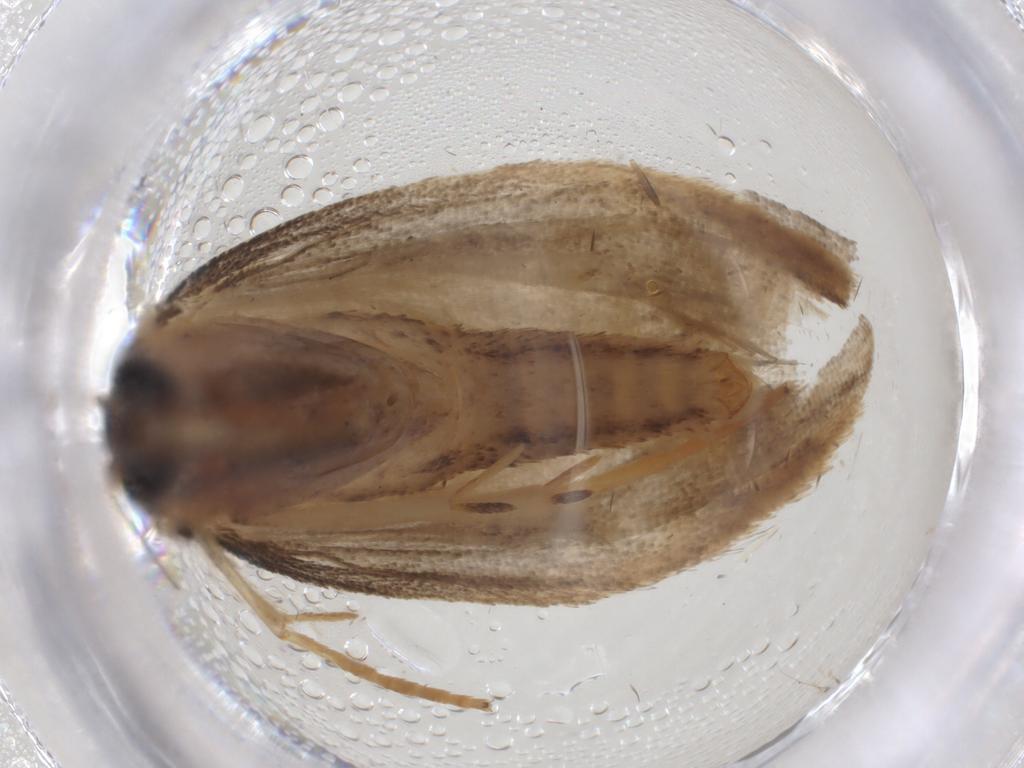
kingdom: Animalia
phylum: Arthropoda
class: Insecta
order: Lepidoptera
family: Crambidae
